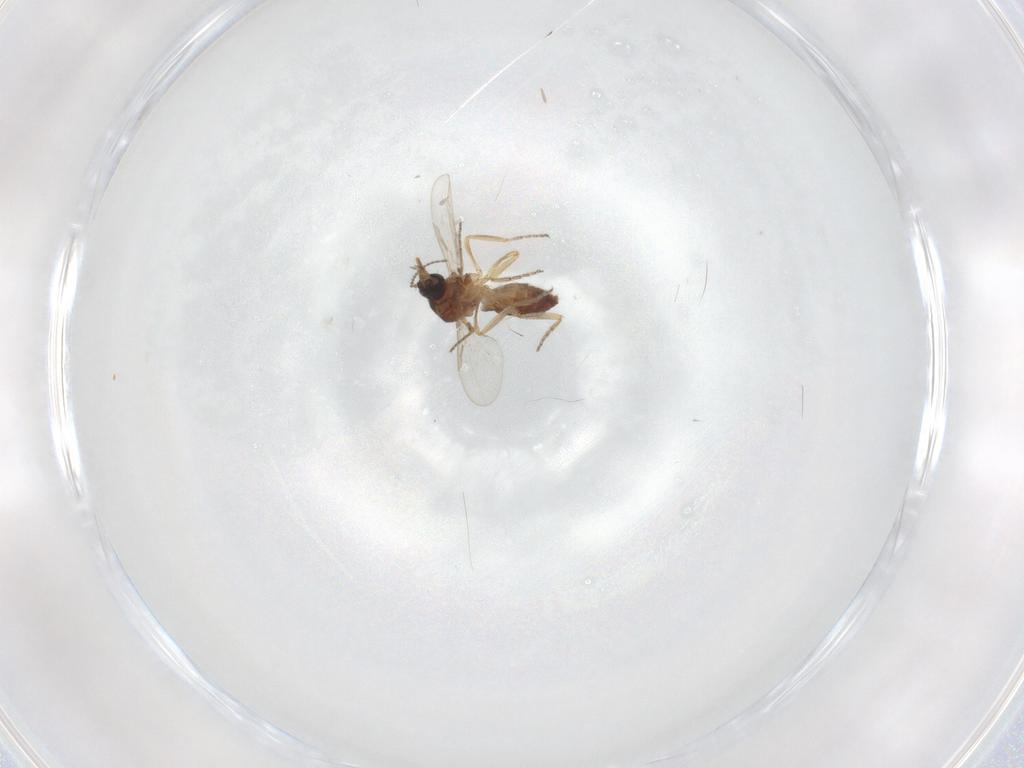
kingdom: Animalia
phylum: Arthropoda
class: Insecta
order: Diptera
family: Ceratopogonidae
